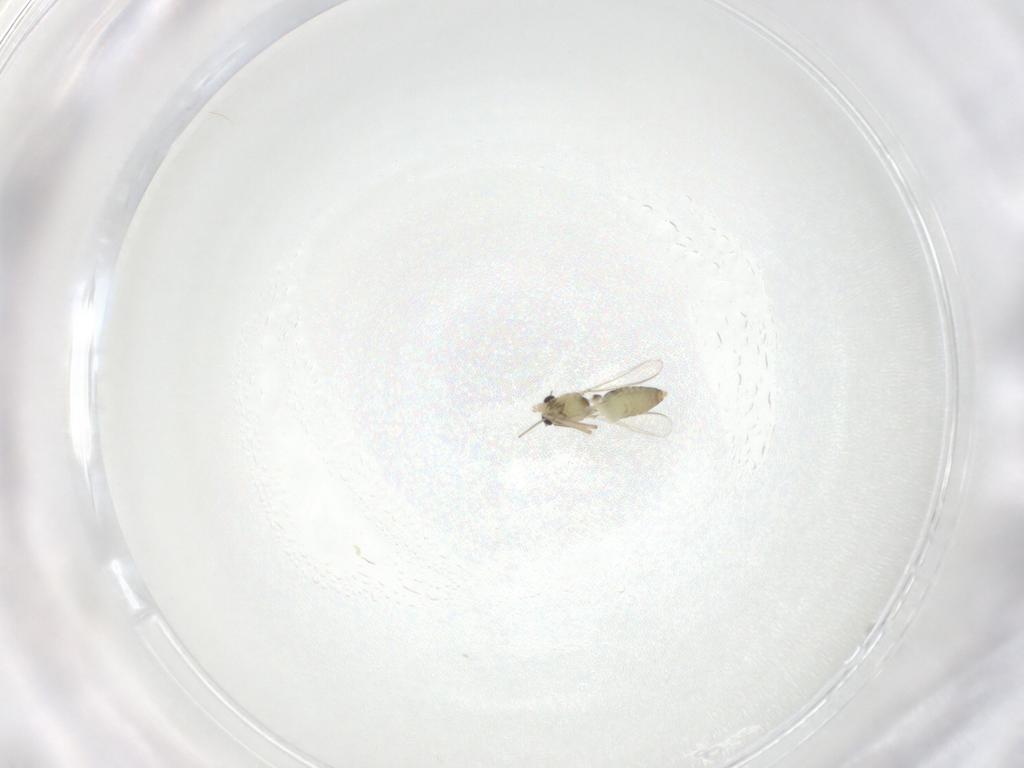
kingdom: Animalia
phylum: Arthropoda
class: Insecta
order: Diptera
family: Chironomidae
